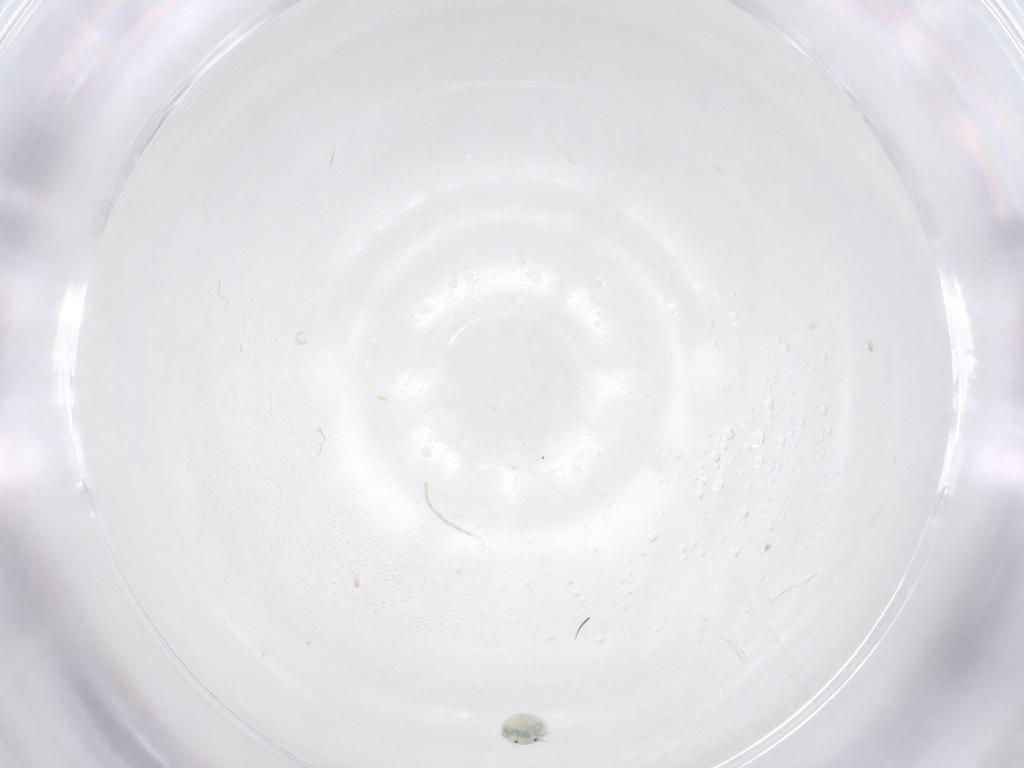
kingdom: Animalia
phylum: Arthropoda
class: Arachnida
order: Trombidiformes
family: Arrenuridae
